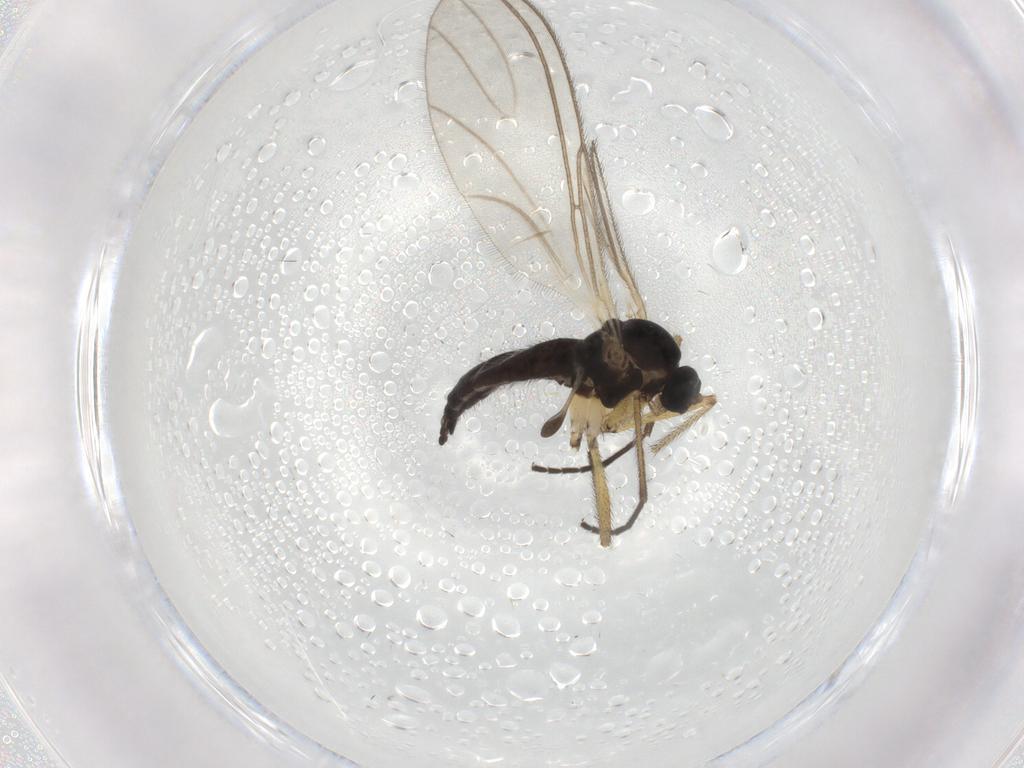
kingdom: Animalia
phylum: Arthropoda
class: Insecta
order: Diptera
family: Sciaridae
